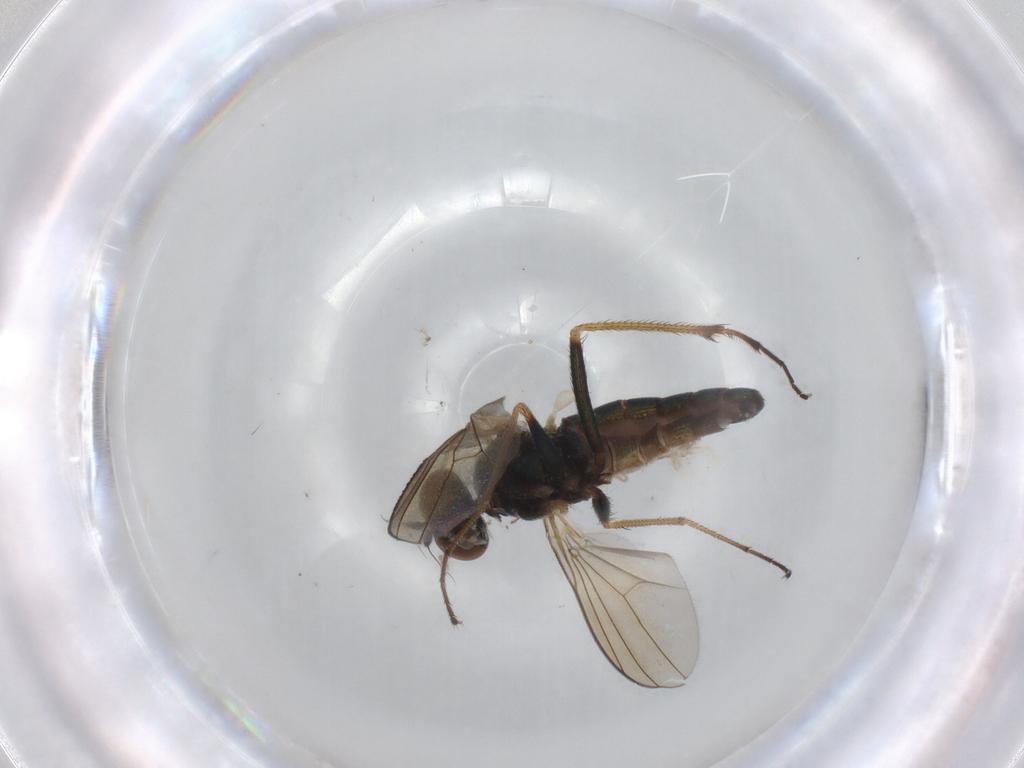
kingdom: Animalia
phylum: Arthropoda
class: Insecta
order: Diptera
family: Dolichopodidae
